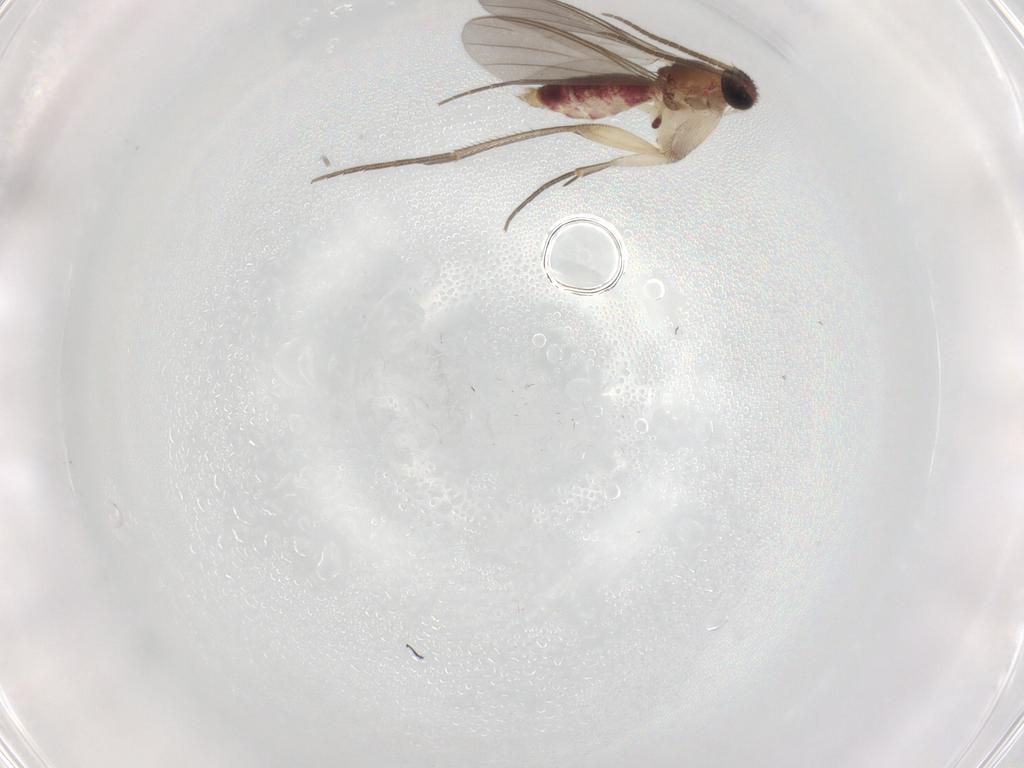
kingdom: Animalia
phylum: Arthropoda
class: Insecta
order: Diptera
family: Mycetophilidae
